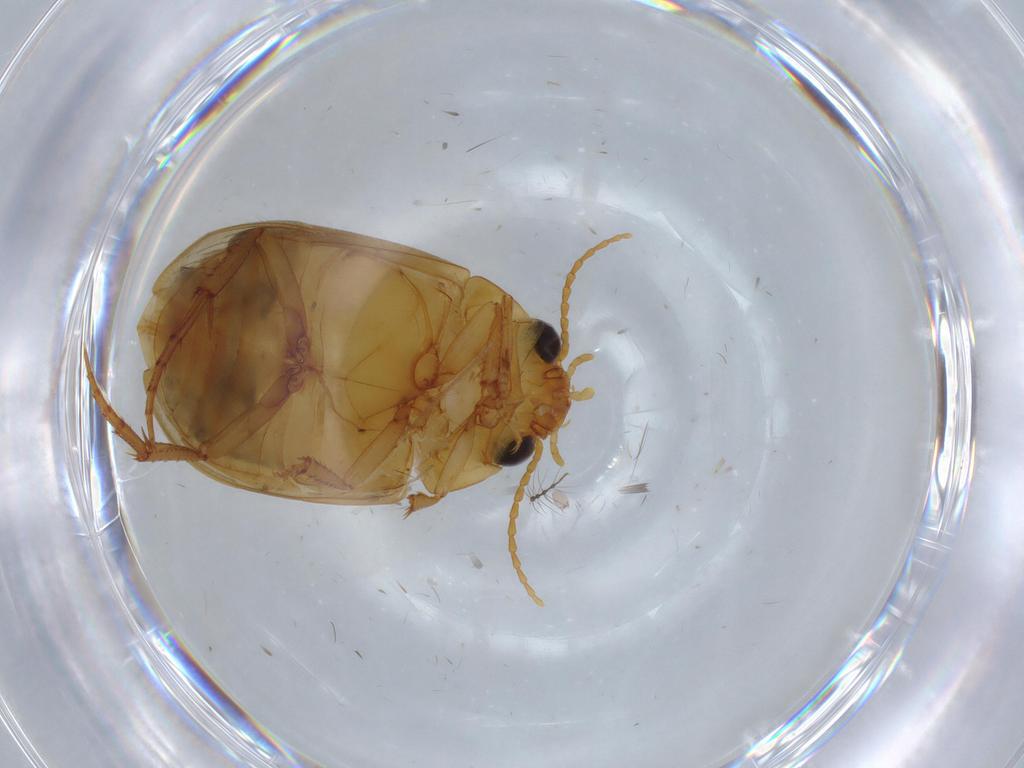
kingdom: Animalia
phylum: Arthropoda
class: Insecta
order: Coleoptera
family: Dytiscidae
